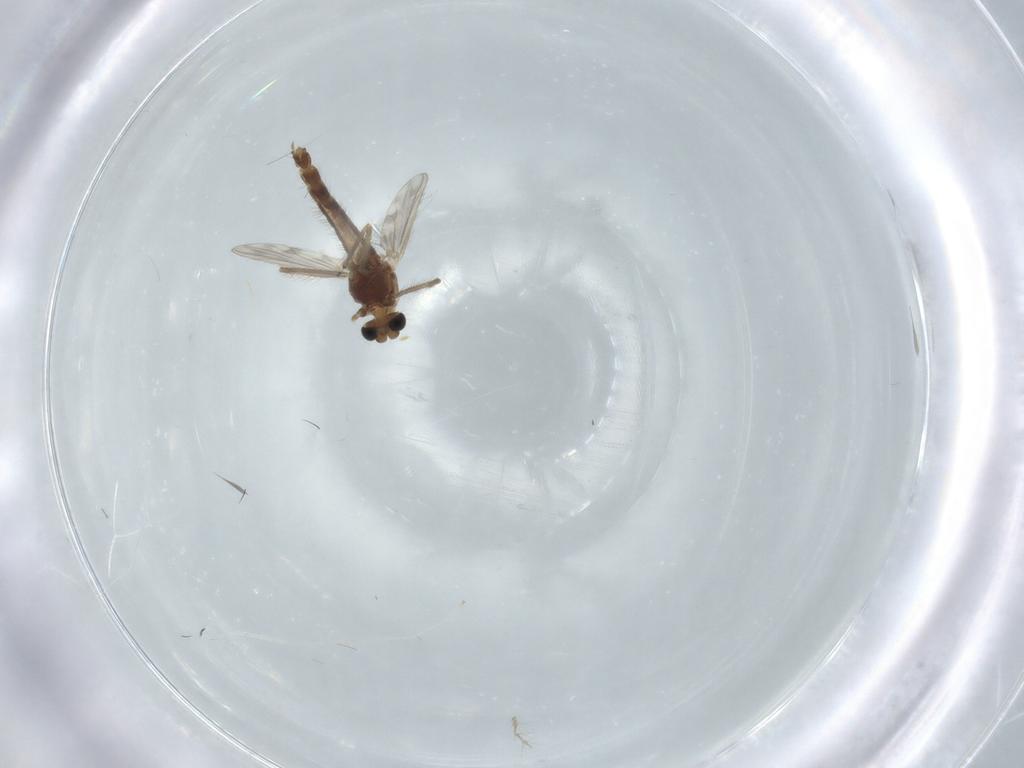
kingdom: Animalia
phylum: Arthropoda
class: Insecta
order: Diptera
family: Chironomidae
